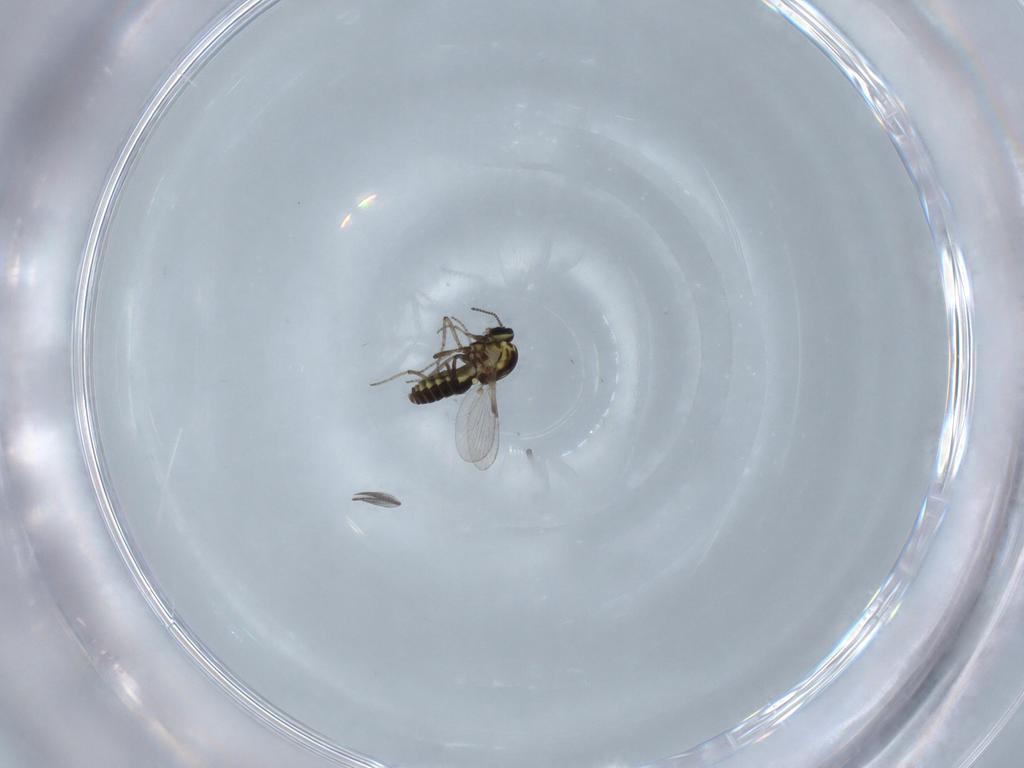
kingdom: Animalia
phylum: Arthropoda
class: Insecta
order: Diptera
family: Ceratopogonidae
